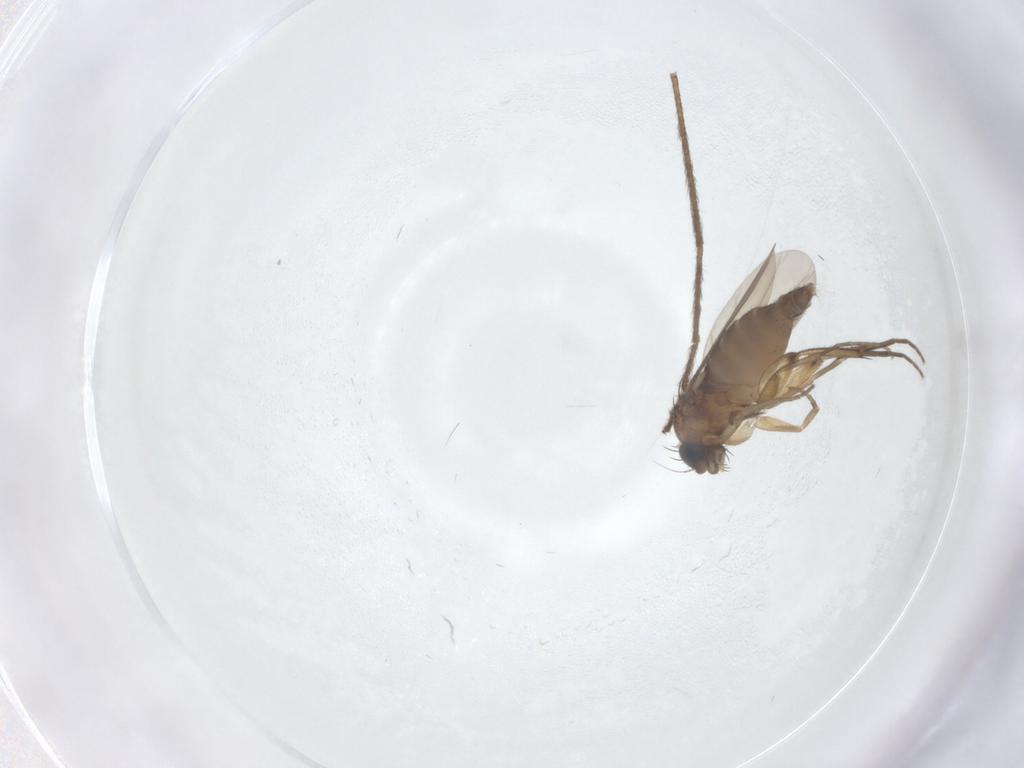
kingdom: Animalia
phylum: Arthropoda
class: Insecta
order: Diptera
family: Phoridae
